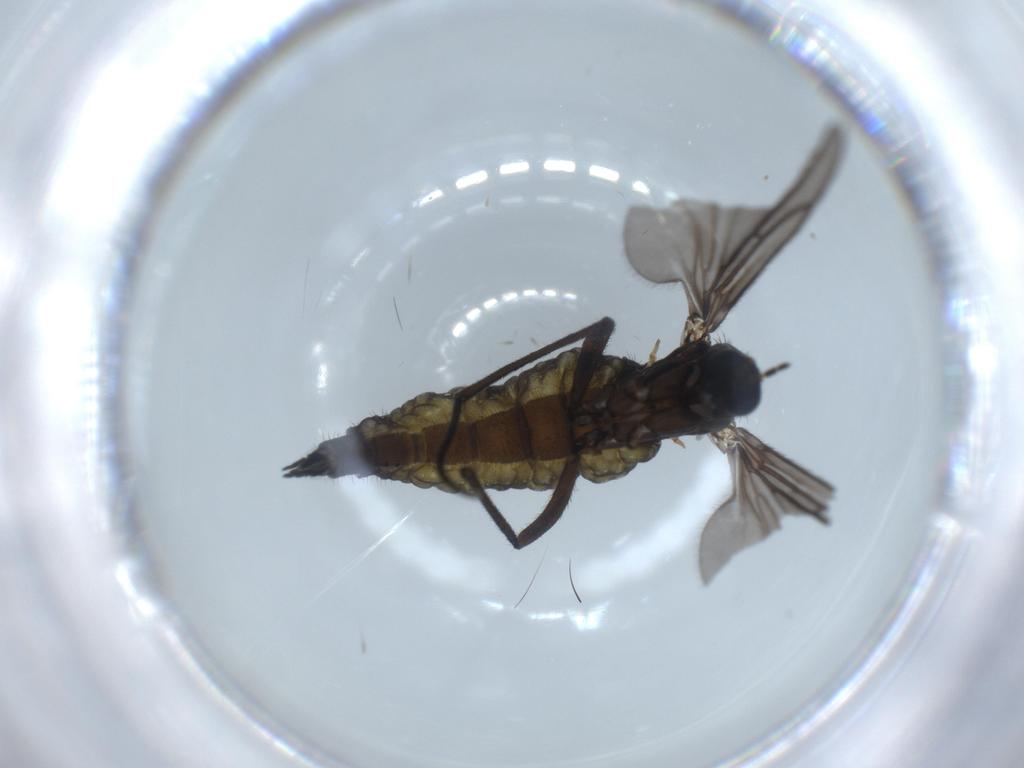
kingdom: Animalia
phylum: Arthropoda
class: Insecta
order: Diptera
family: Sciaridae
